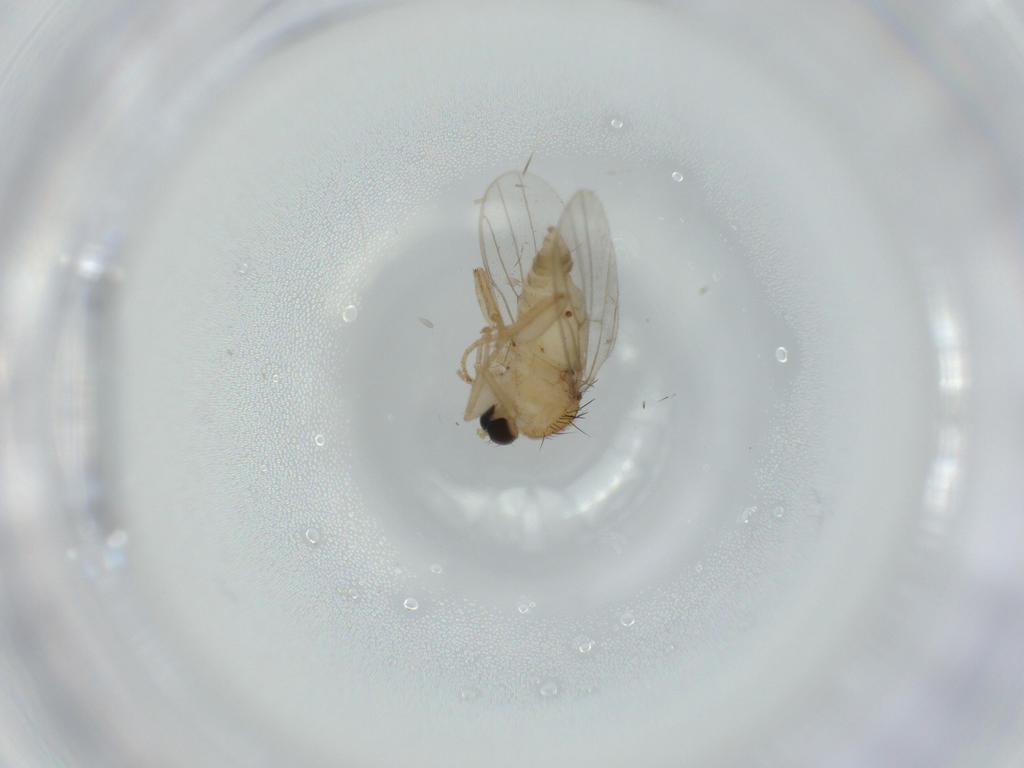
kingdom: Animalia
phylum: Arthropoda
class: Insecta
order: Diptera
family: Hybotidae
